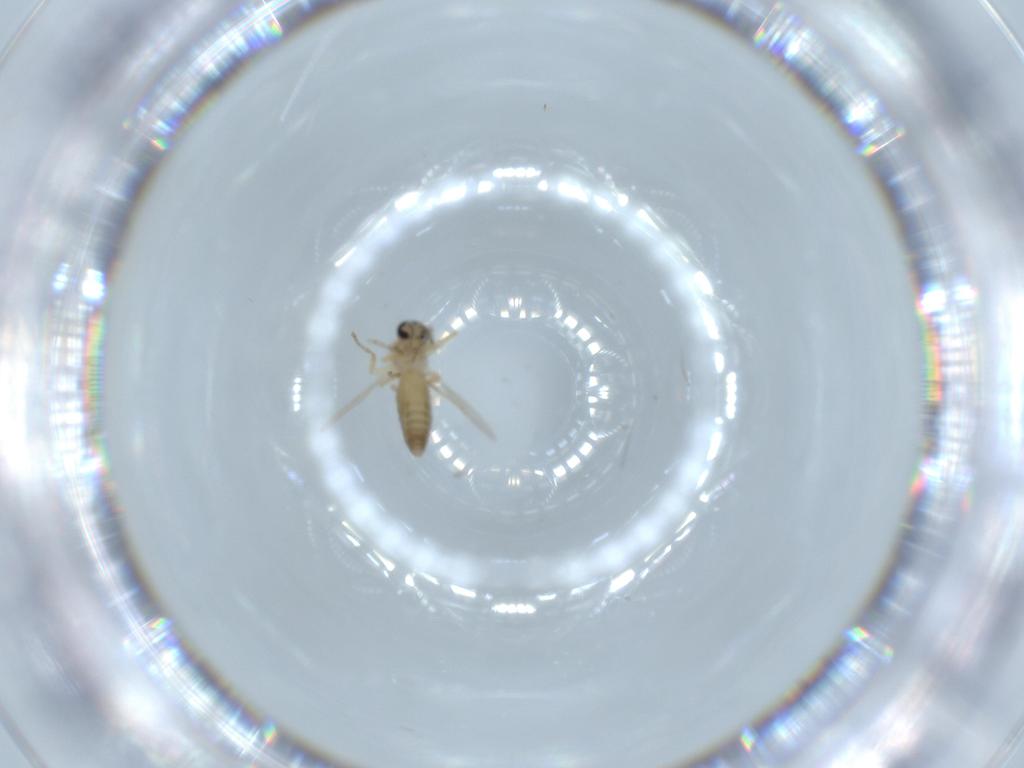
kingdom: Animalia
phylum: Arthropoda
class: Insecta
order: Diptera
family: Ceratopogonidae
